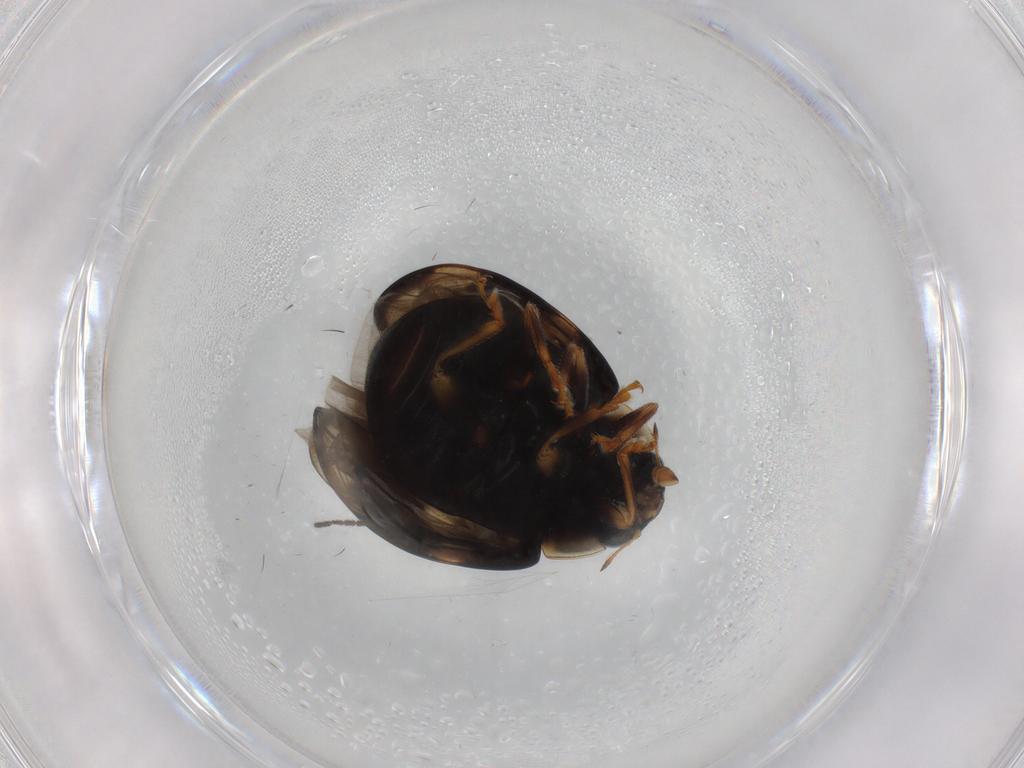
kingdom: Animalia
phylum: Arthropoda
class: Insecta
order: Coleoptera
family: Coccinellidae
